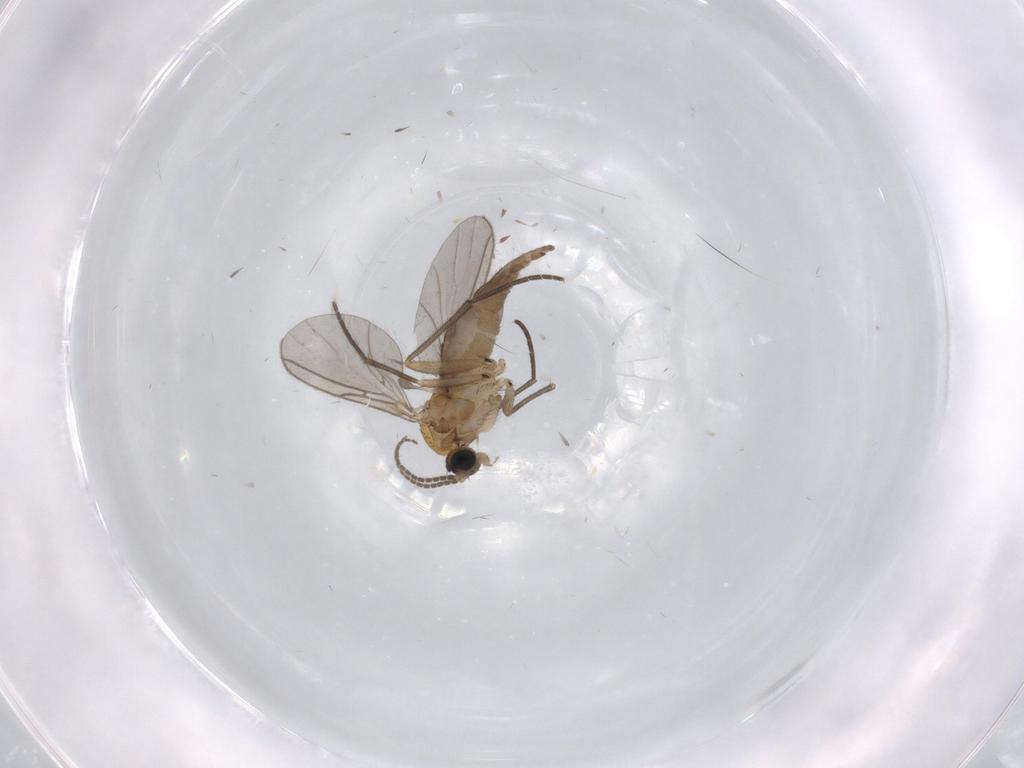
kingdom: Animalia
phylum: Arthropoda
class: Insecta
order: Diptera
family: Sciaridae
